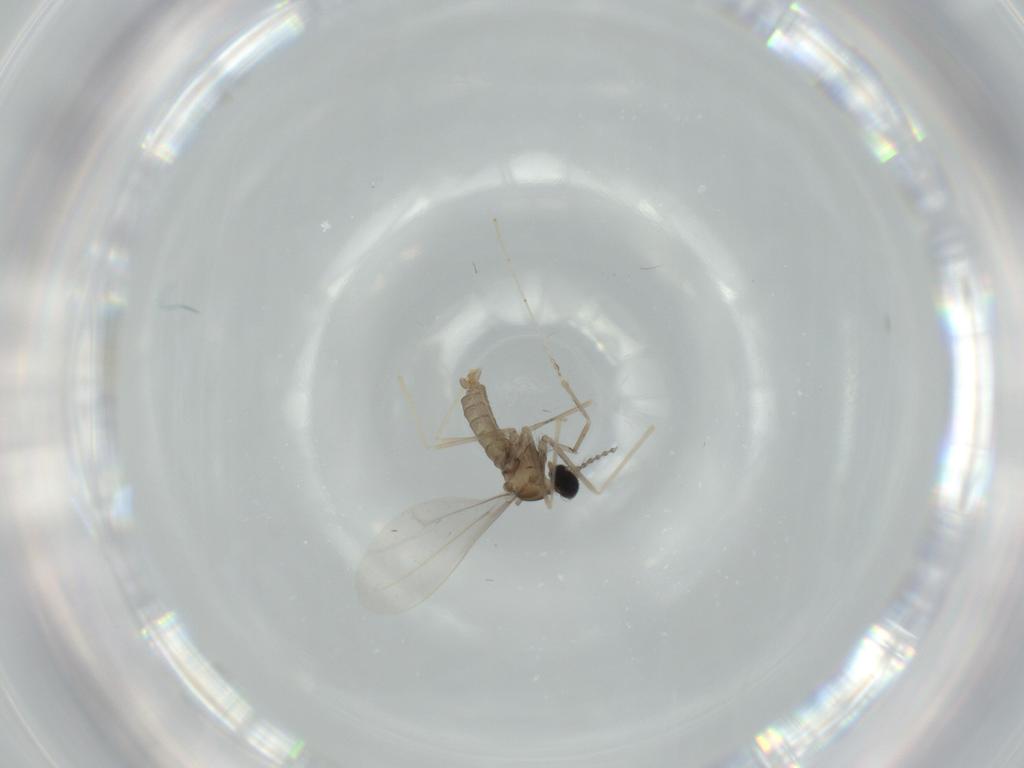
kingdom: Animalia
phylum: Arthropoda
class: Insecta
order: Diptera
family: Cecidomyiidae
